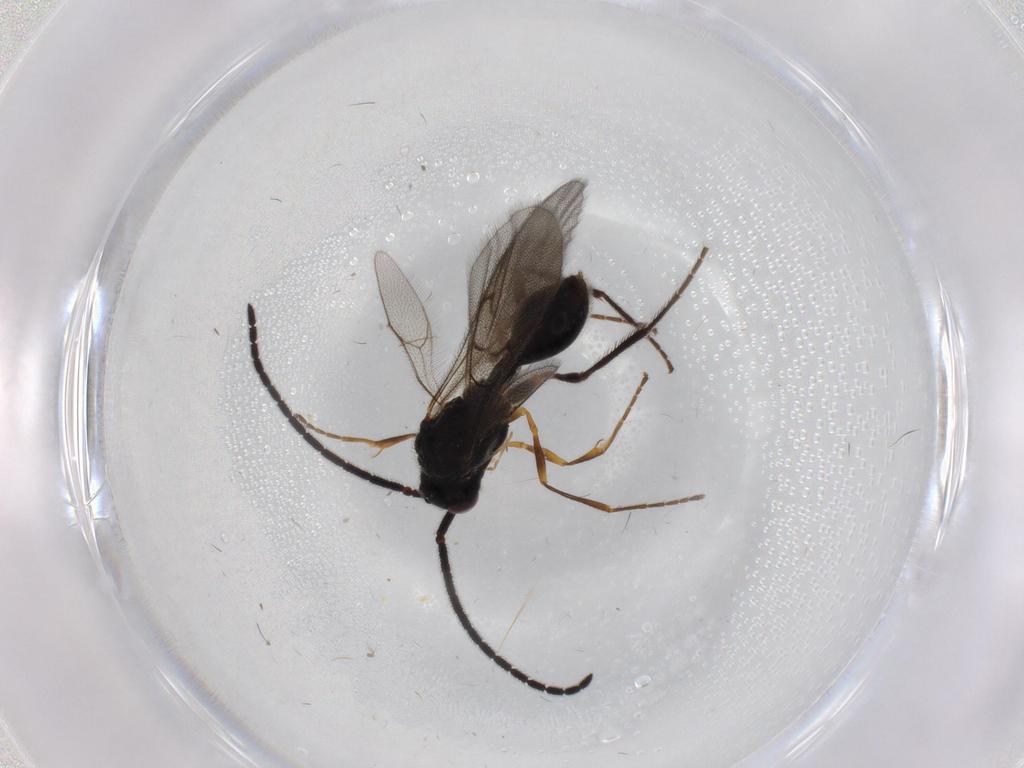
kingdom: Animalia
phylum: Arthropoda
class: Insecta
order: Hymenoptera
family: Diapriidae
